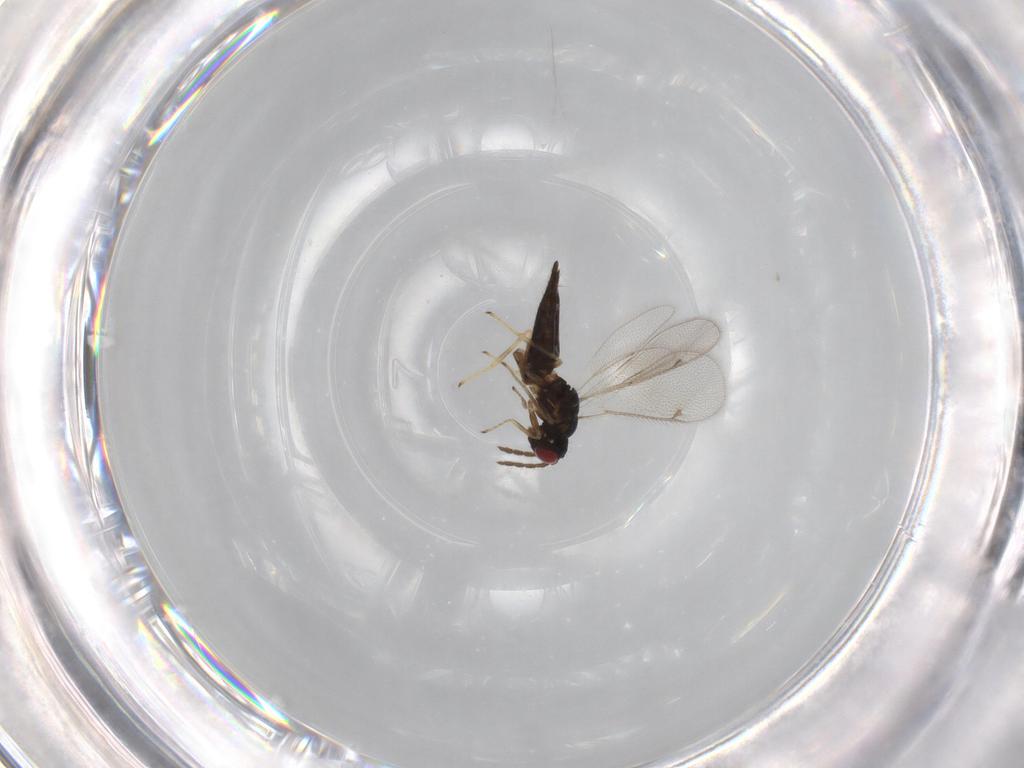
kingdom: Animalia
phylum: Arthropoda
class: Insecta
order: Hymenoptera
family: Eulophidae
